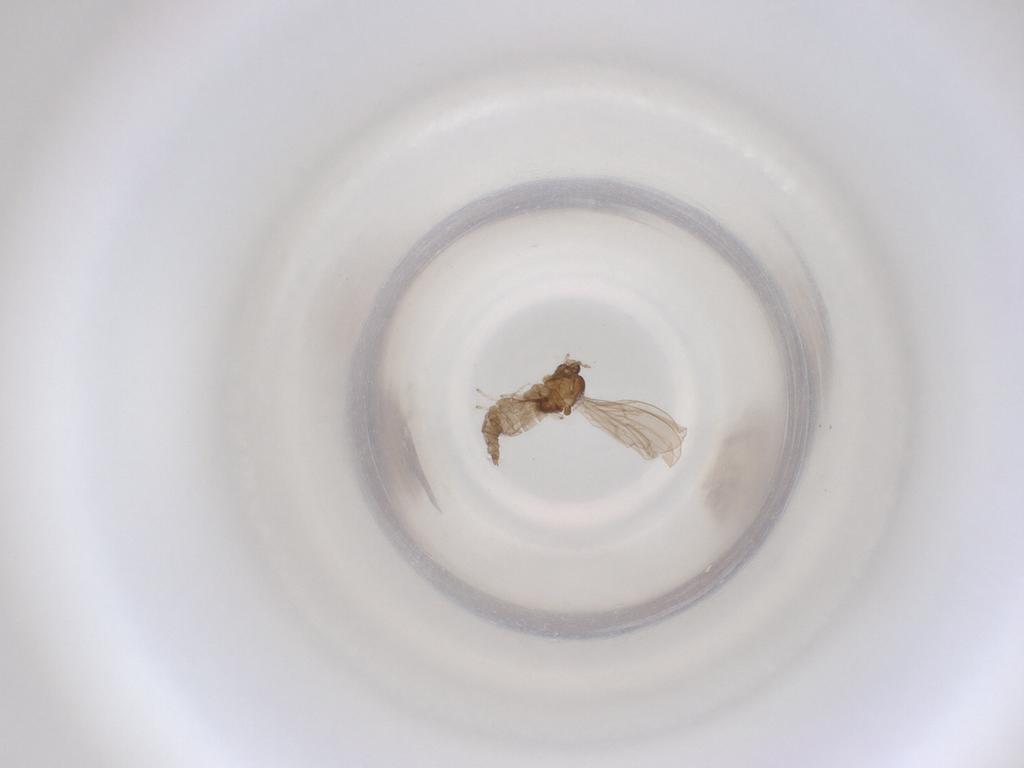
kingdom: Animalia
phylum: Arthropoda
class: Insecta
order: Diptera
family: Cecidomyiidae
